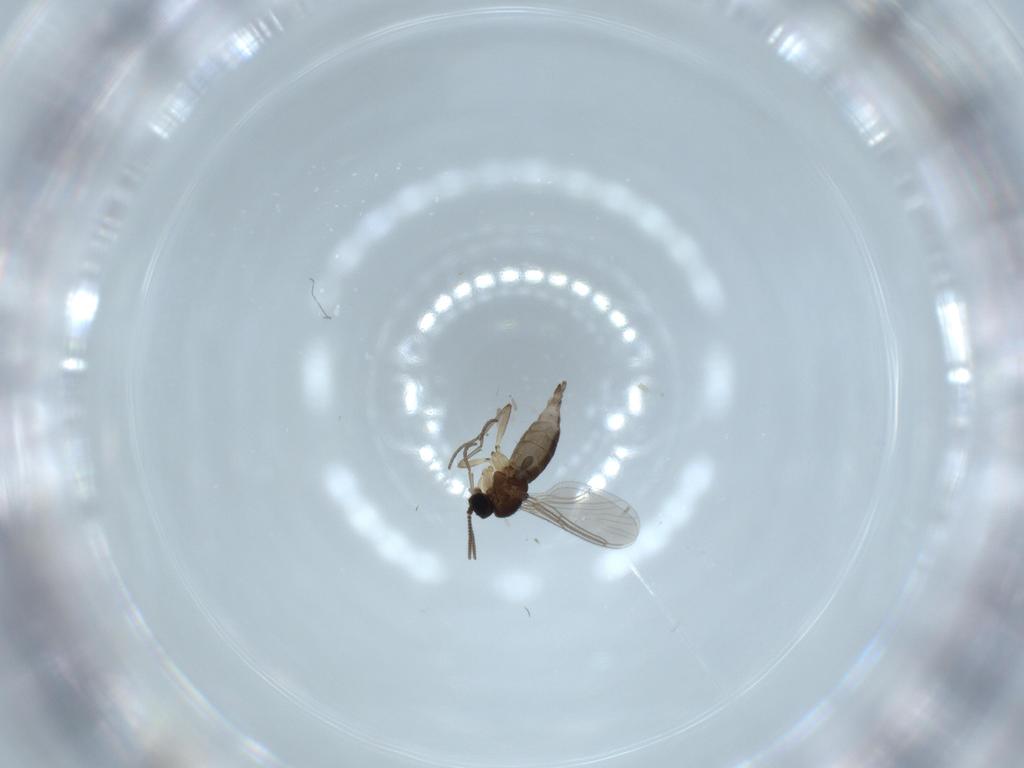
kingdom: Animalia
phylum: Arthropoda
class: Insecta
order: Diptera
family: Sciaridae
